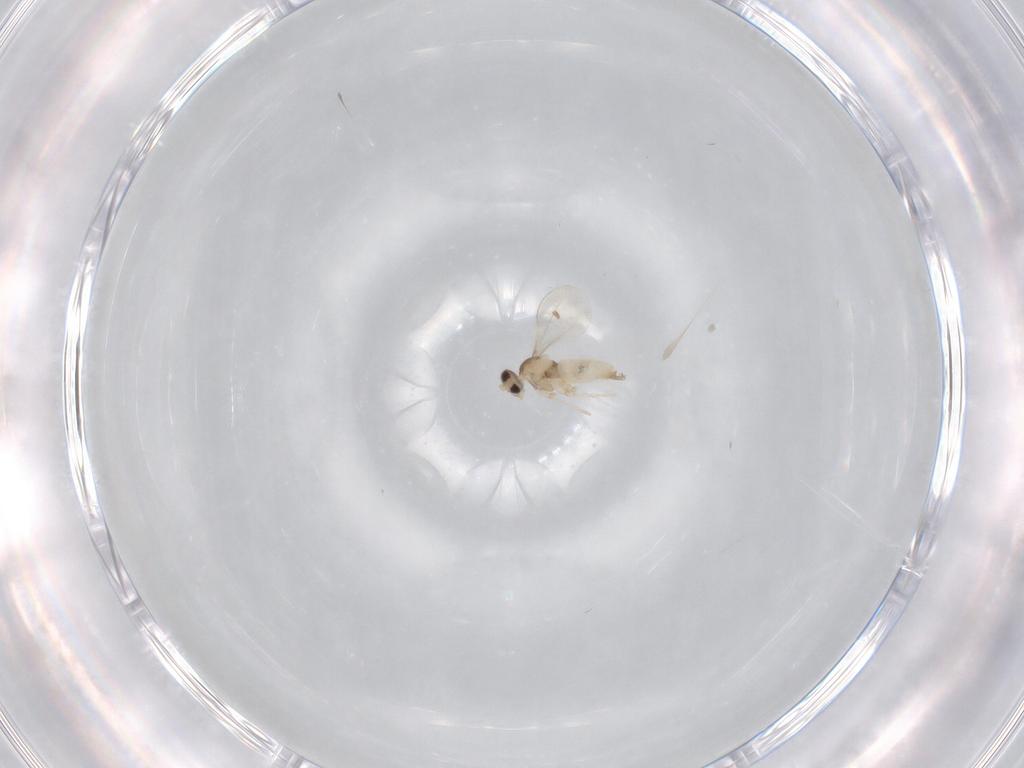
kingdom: Animalia
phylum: Arthropoda
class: Insecta
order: Diptera
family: Cecidomyiidae
